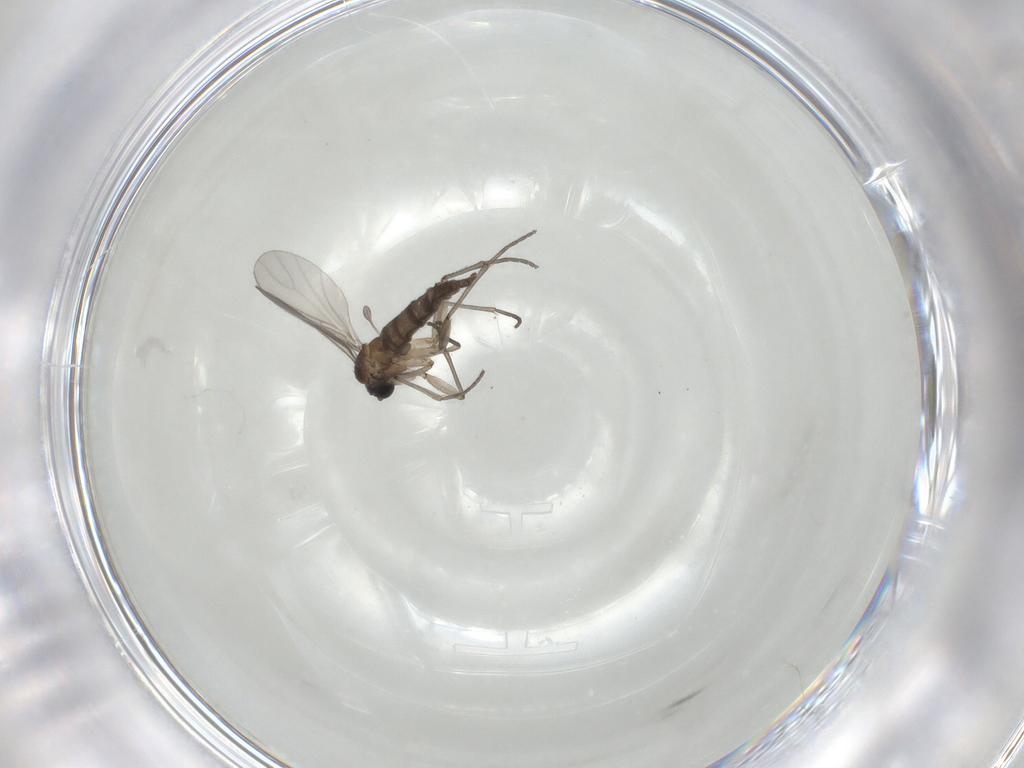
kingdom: Animalia
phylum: Arthropoda
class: Insecta
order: Diptera
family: Sciaridae
